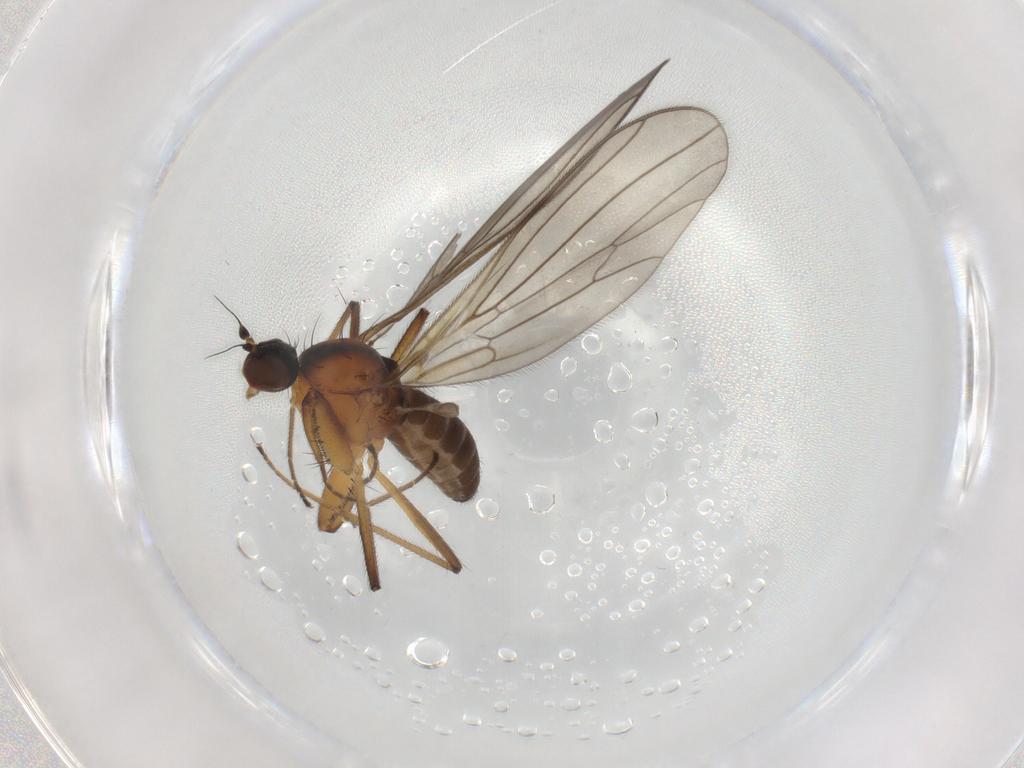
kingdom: Animalia
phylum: Arthropoda
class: Insecta
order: Diptera
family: Empididae
